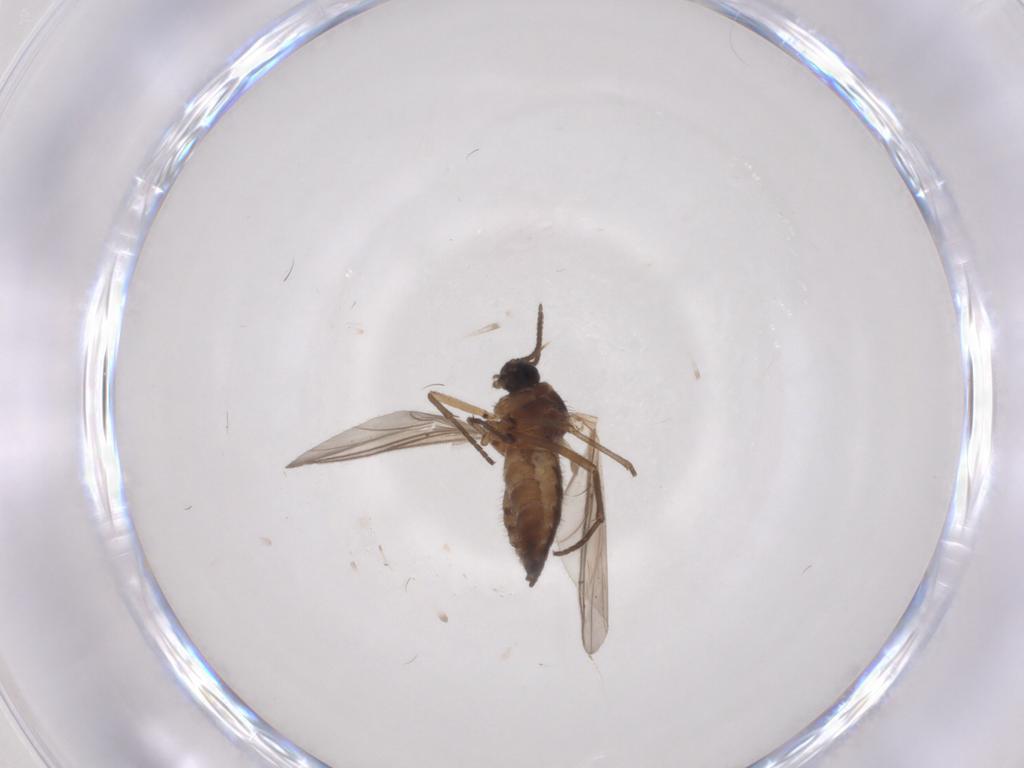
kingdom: Animalia
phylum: Arthropoda
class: Insecta
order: Diptera
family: Sciaridae
